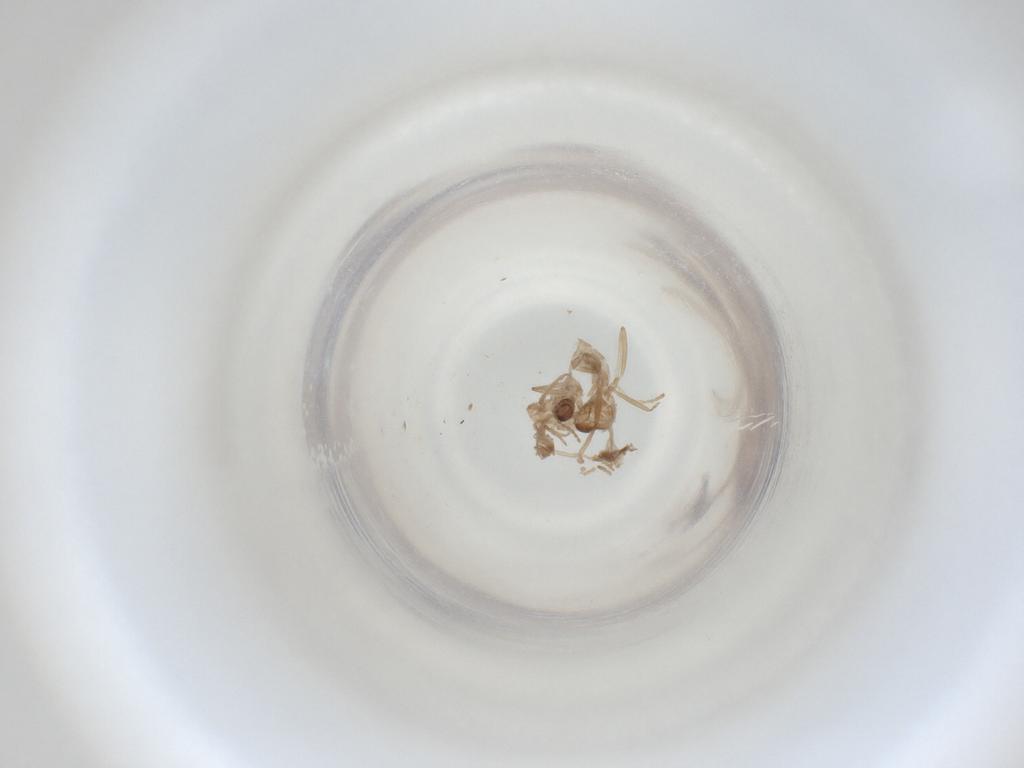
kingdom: Animalia
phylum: Arthropoda
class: Insecta
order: Diptera
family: Cecidomyiidae
